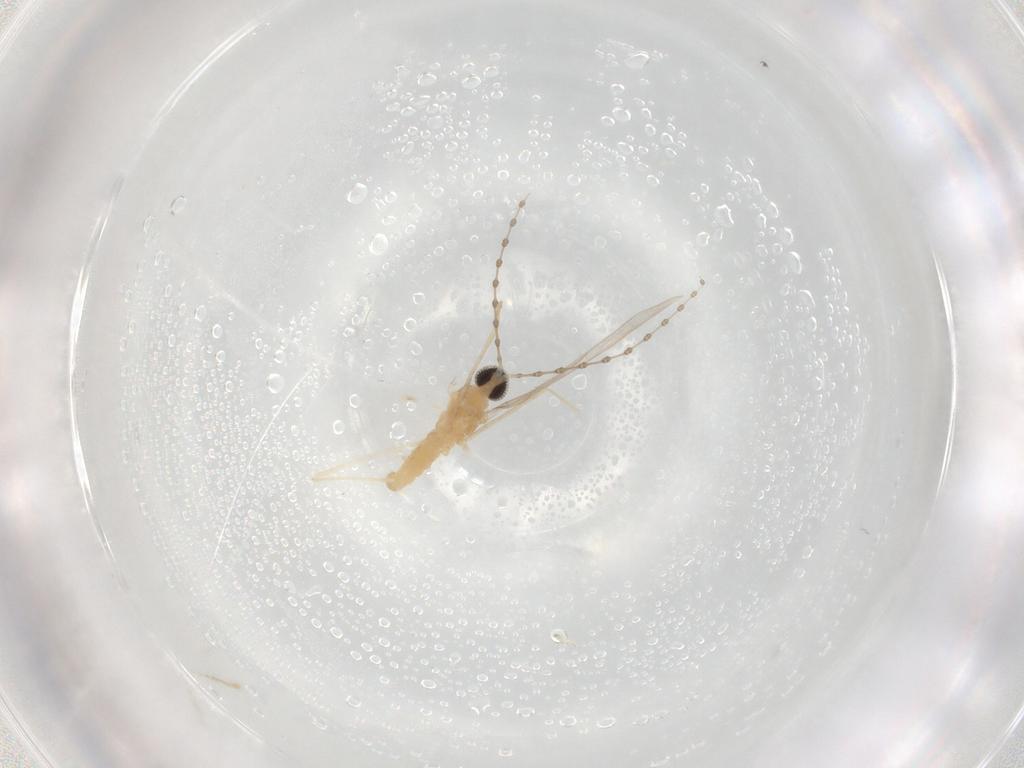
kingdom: Animalia
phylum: Arthropoda
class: Insecta
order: Diptera
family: Cecidomyiidae
